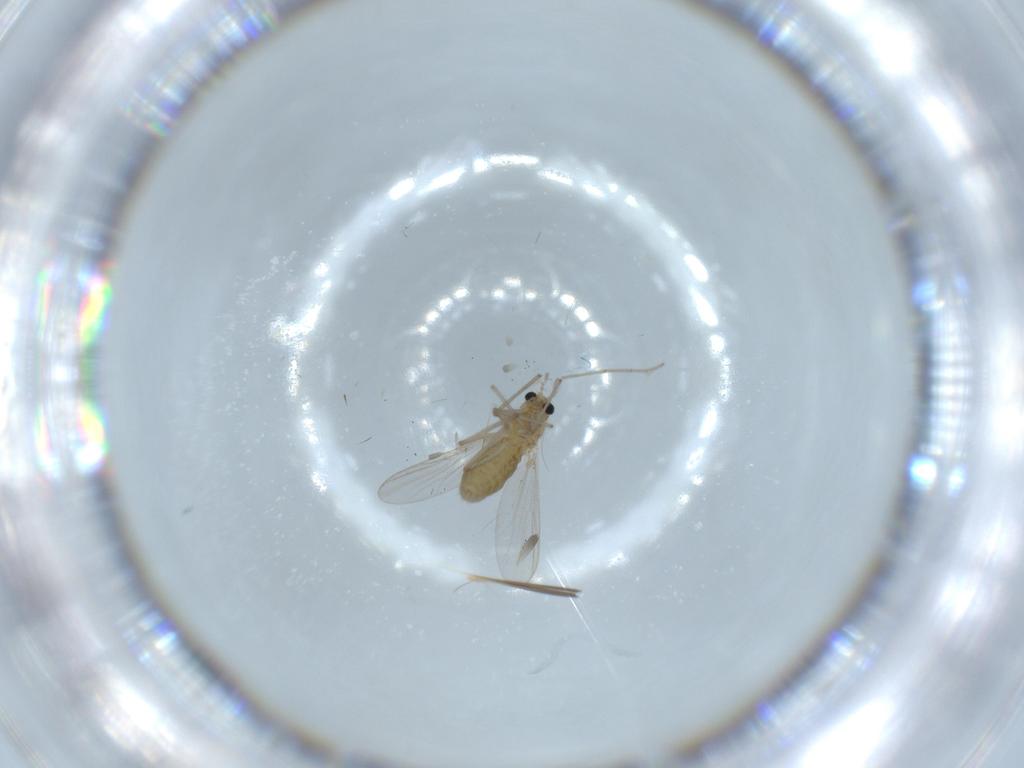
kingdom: Animalia
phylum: Arthropoda
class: Insecta
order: Diptera
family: Chironomidae
